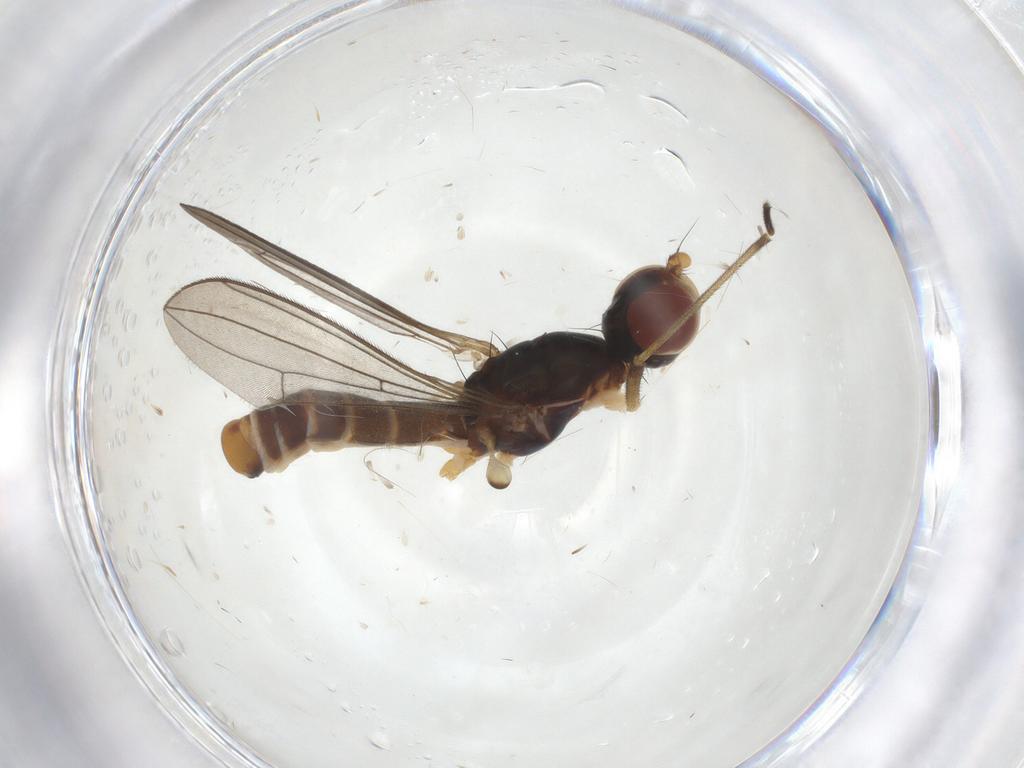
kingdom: Animalia
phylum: Arthropoda
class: Insecta
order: Diptera
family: Micropezidae
